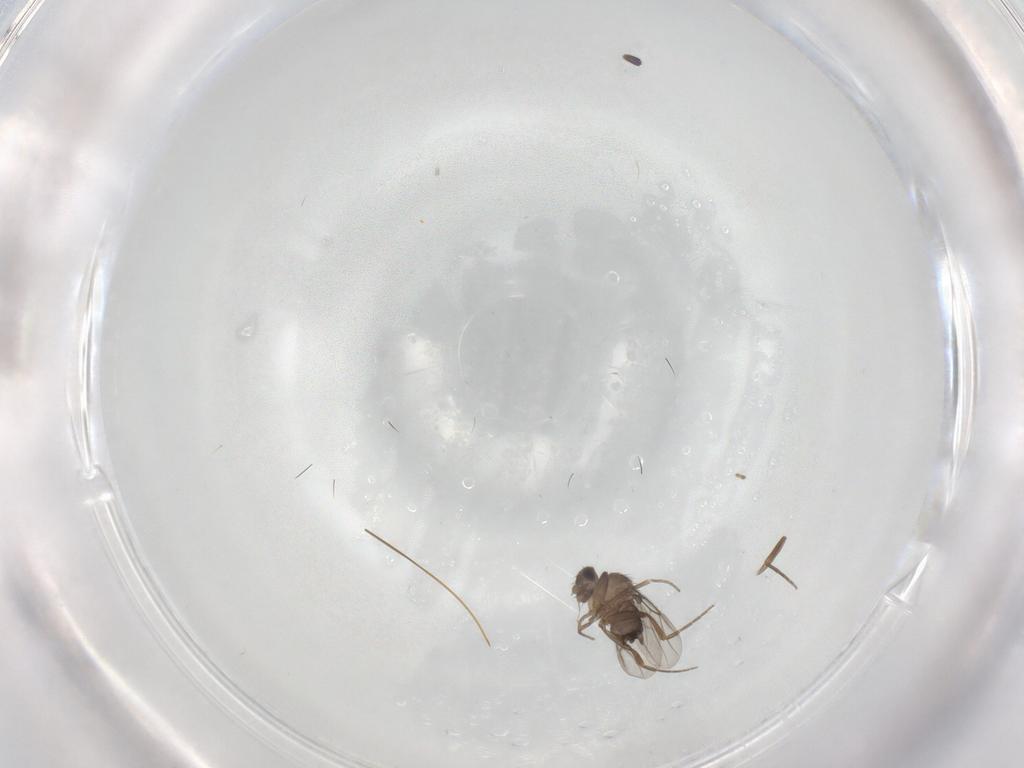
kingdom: Animalia
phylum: Arthropoda
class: Insecta
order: Diptera
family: Phoridae
